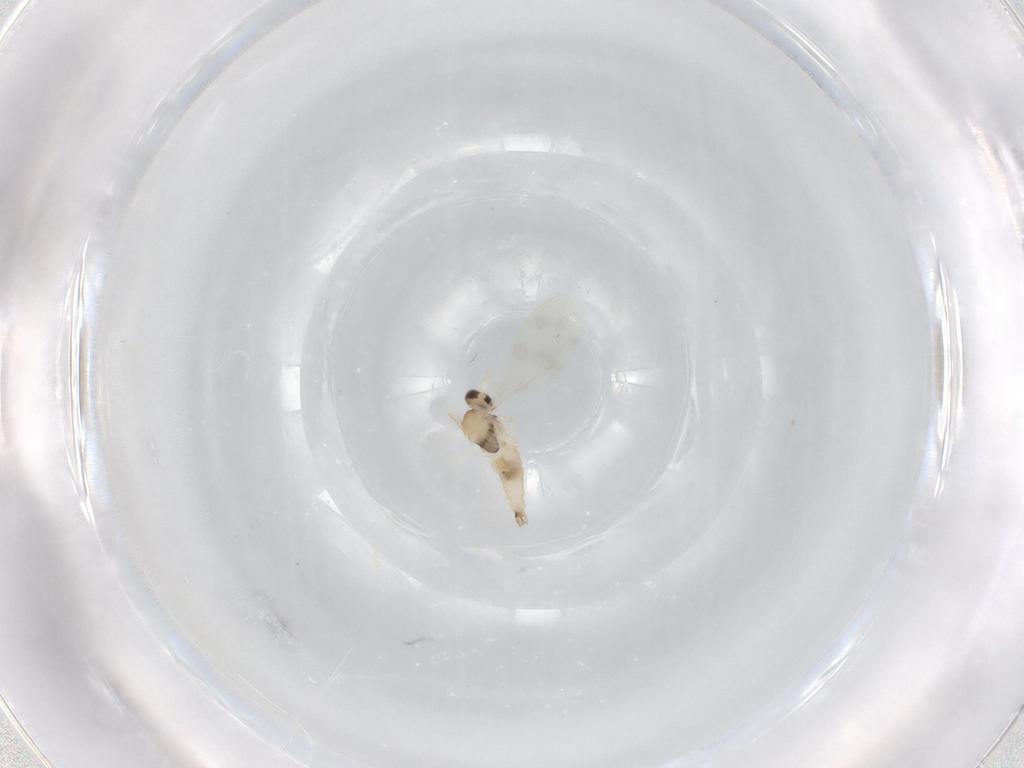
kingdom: Animalia
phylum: Arthropoda
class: Insecta
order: Diptera
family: Cecidomyiidae
